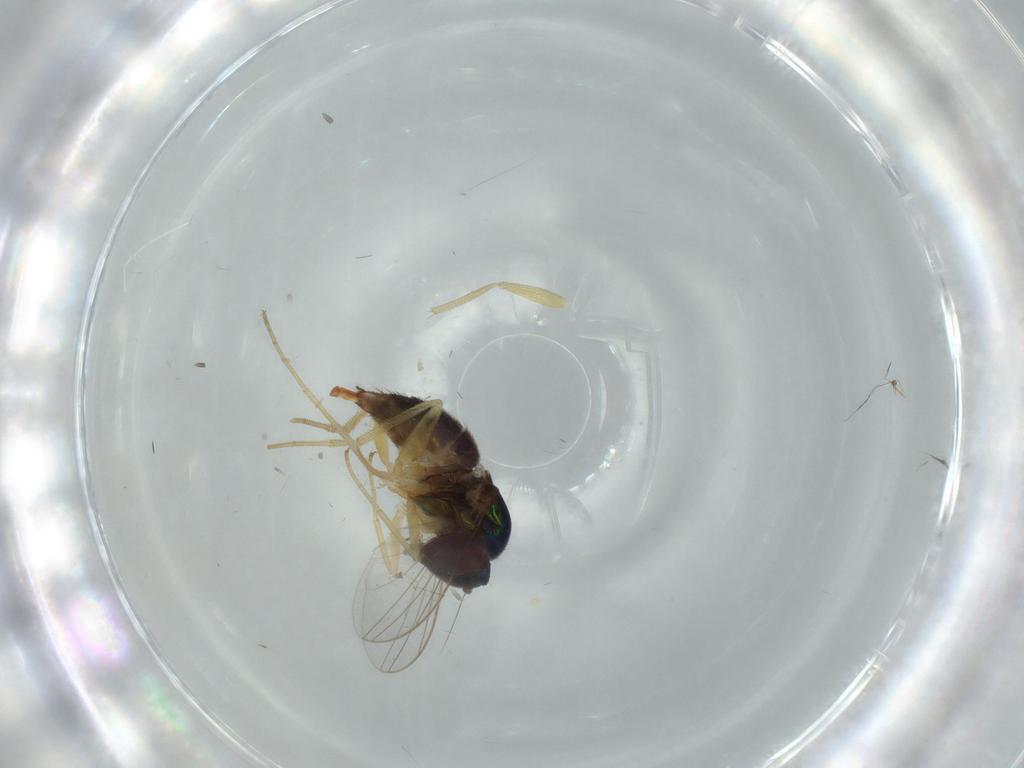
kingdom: Animalia
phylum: Arthropoda
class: Insecta
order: Diptera
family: Dolichopodidae
